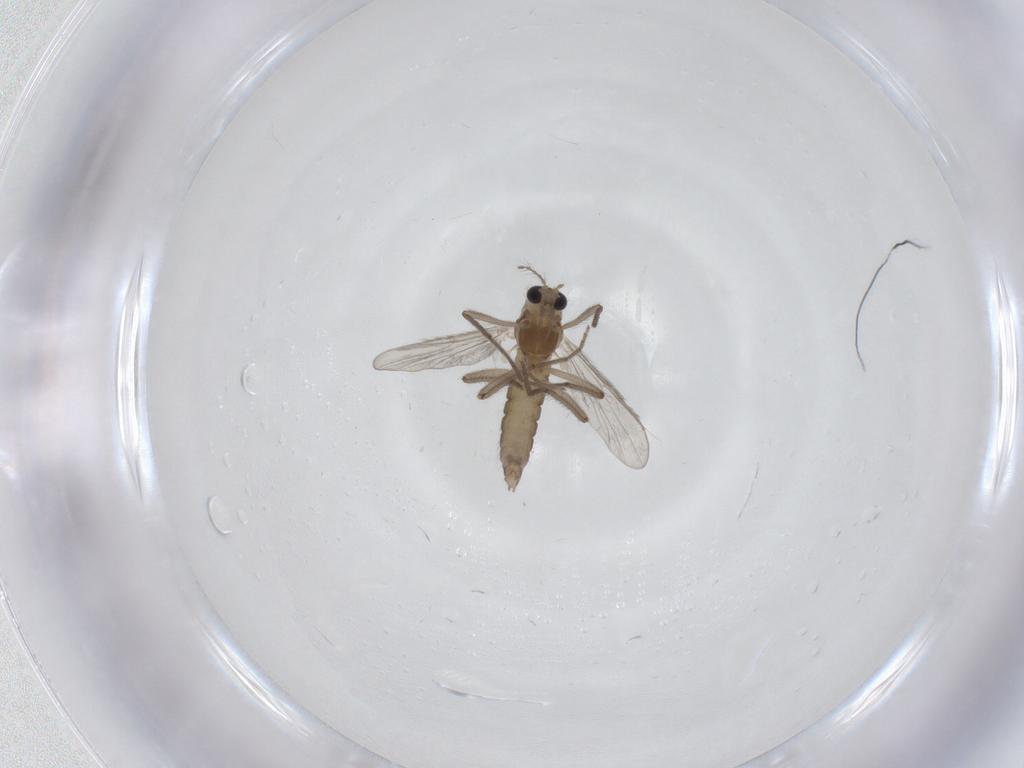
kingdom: Animalia
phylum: Arthropoda
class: Insecta
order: Diptera
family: Chironomidae
